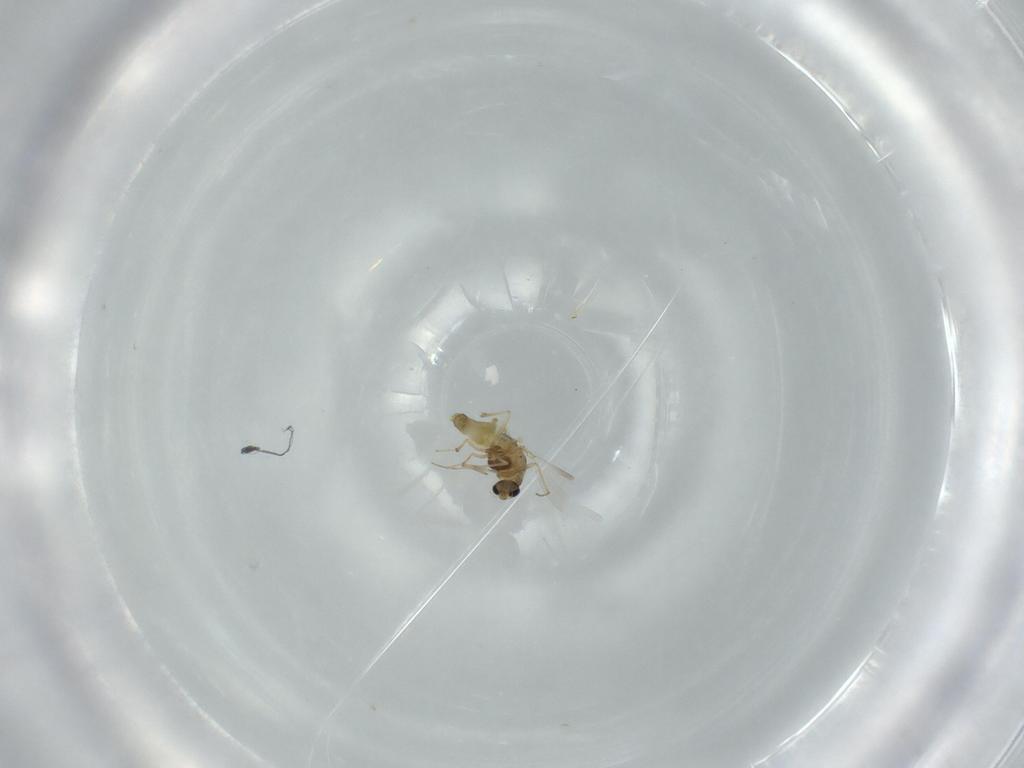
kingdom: Animalia
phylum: Arthropoda
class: Insecta
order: Diptera
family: Chironomidae
